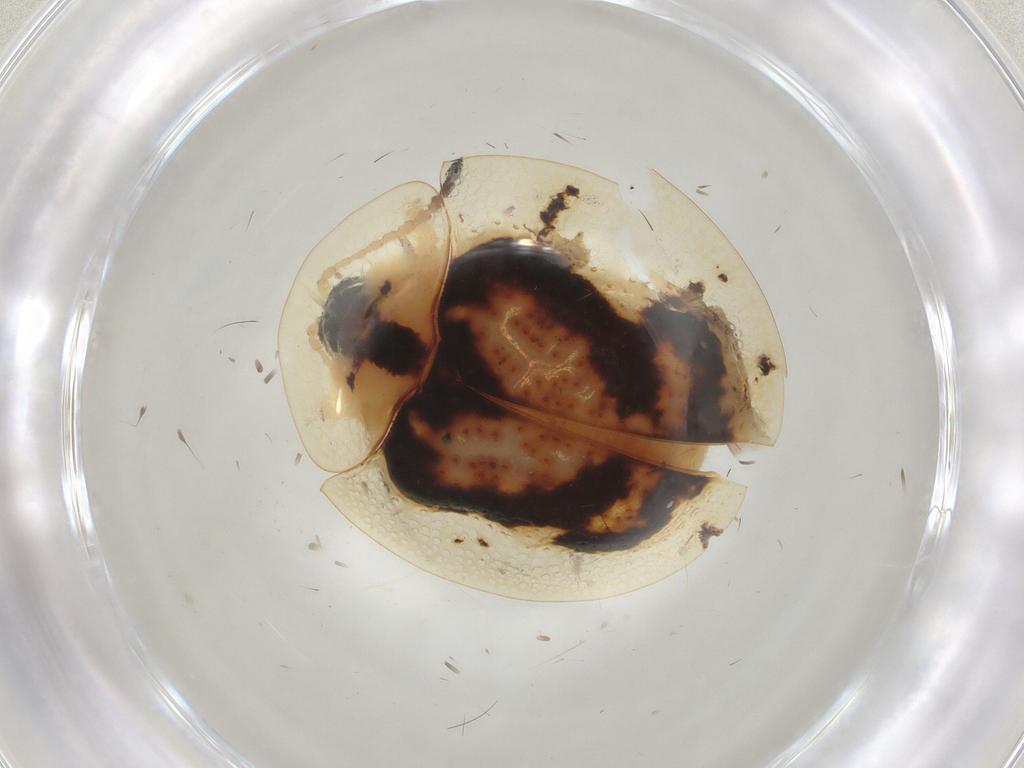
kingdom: Animalia
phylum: Arthropoda
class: Insecta
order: Coleoptera
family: Chrysomelidae
